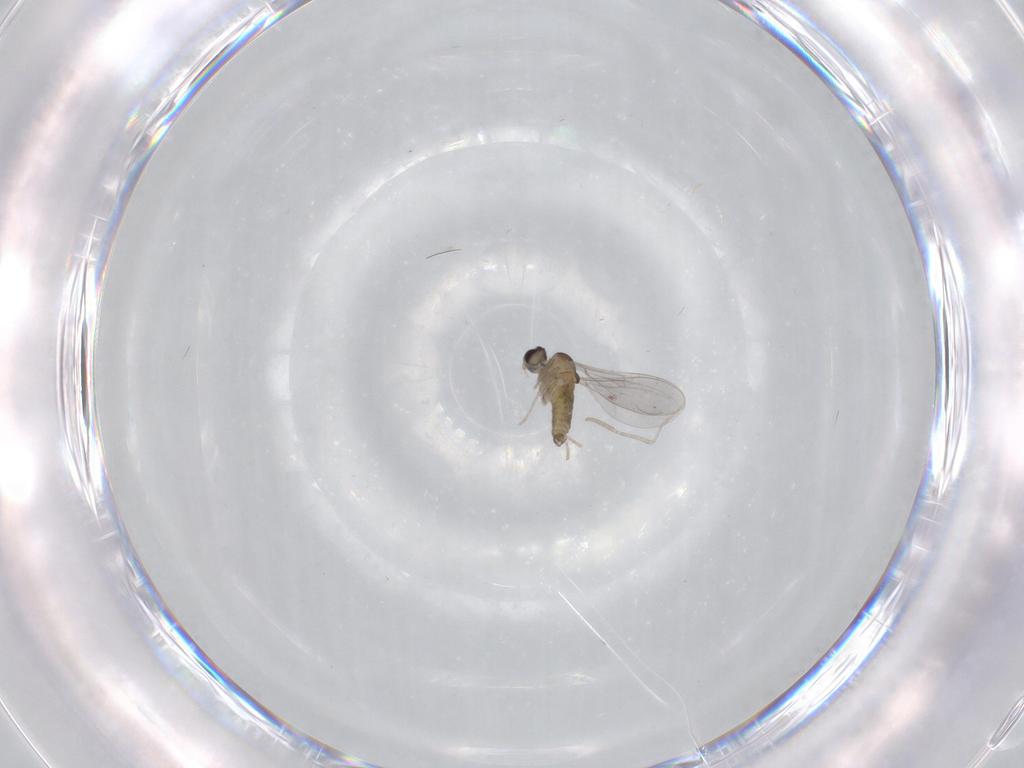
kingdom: Animalia
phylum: Arthropoda
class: Insecta
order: Diptera
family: Cecidomyiidae
